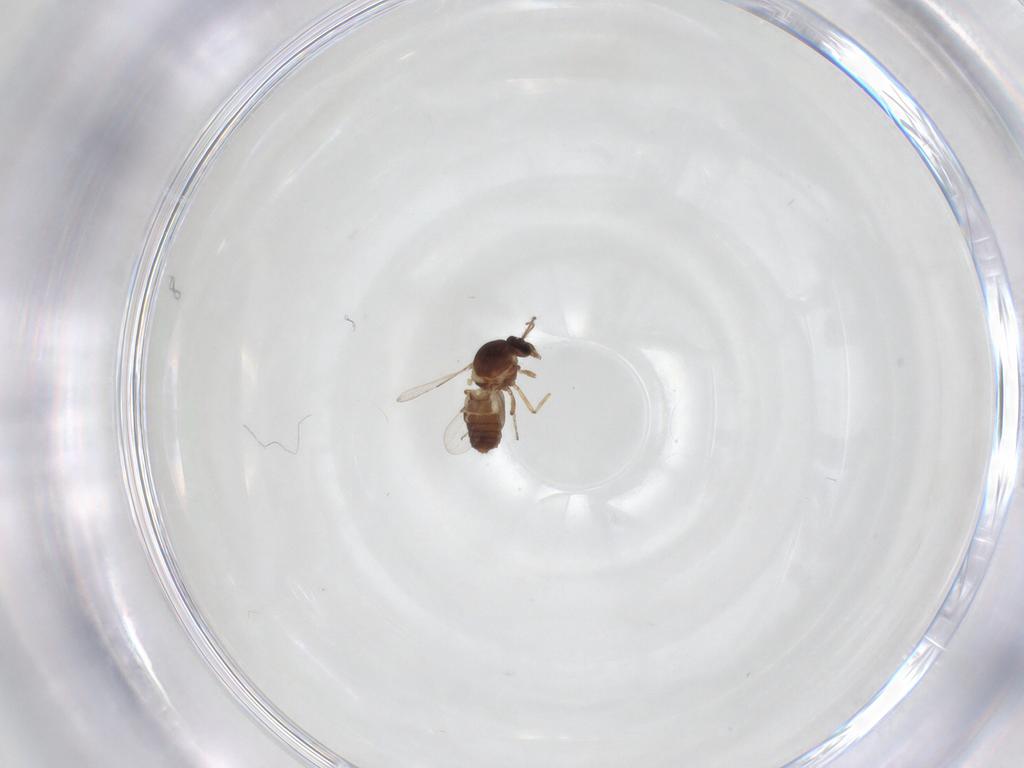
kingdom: Animalia
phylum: Arthropoda
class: Insecta
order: Diptera
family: Ceratopogonidae
